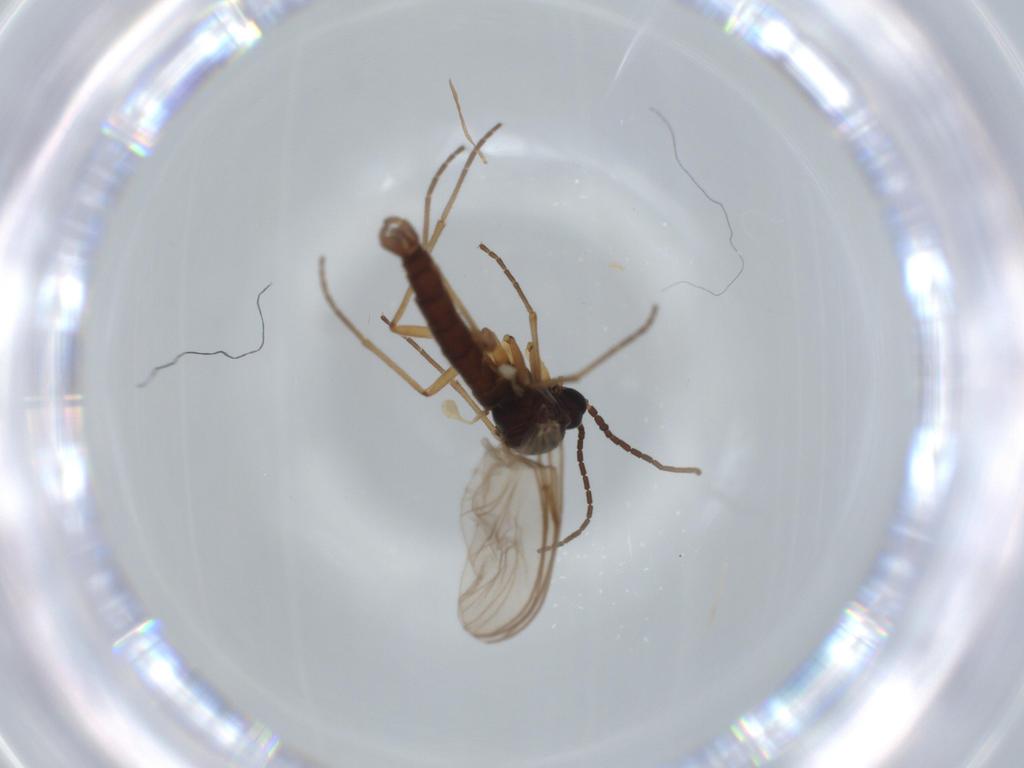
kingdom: Animalia
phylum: Arthropoda
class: Insecta
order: Diptera
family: Sciaridae
